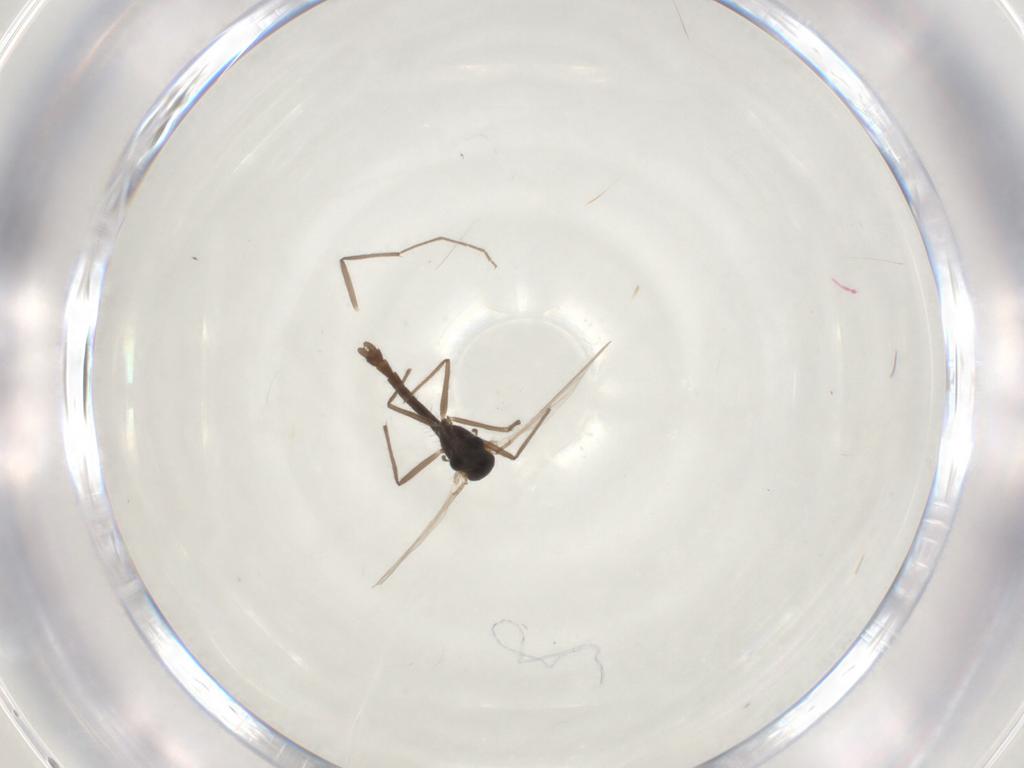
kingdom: Animalia
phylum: Arthropoda
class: Insecta
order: Diptera
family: Chironomidae
